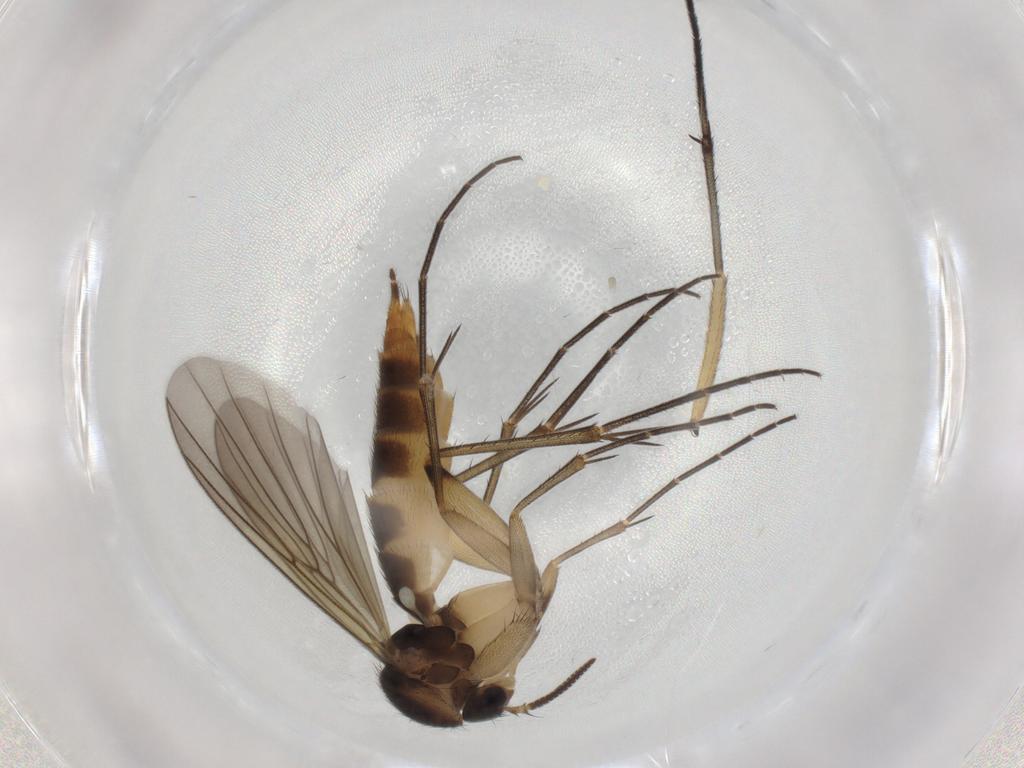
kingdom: Animalia
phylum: Arthropoda
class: Insecta
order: Diptera
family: Mycetophilidae
